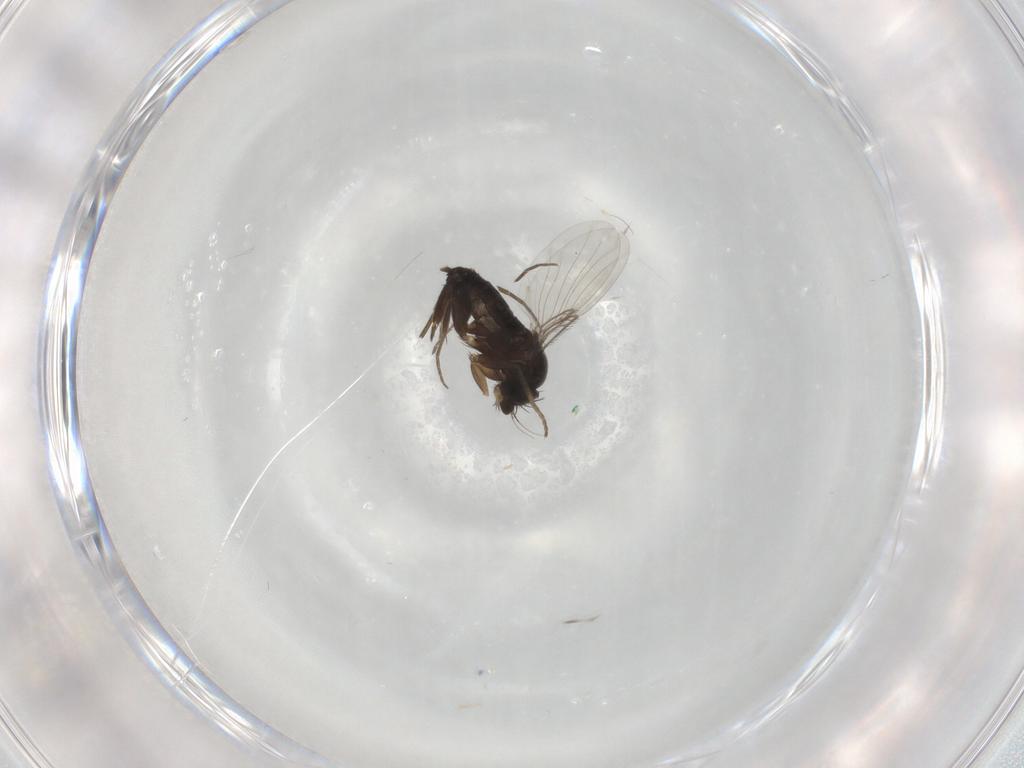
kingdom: Animalia
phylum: Arthropoda
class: Insecta
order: Diptera
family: Phoridae
